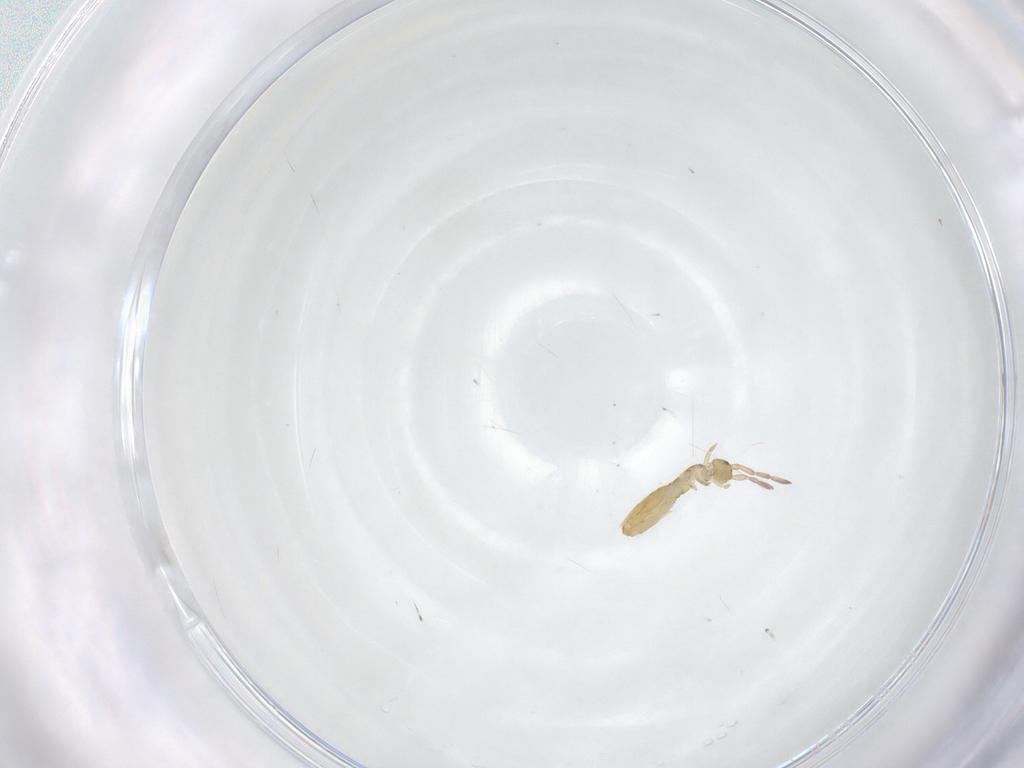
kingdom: Animalia
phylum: Arthropoda
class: Collembola
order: Entomobryomorpha
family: Entomobryidae
